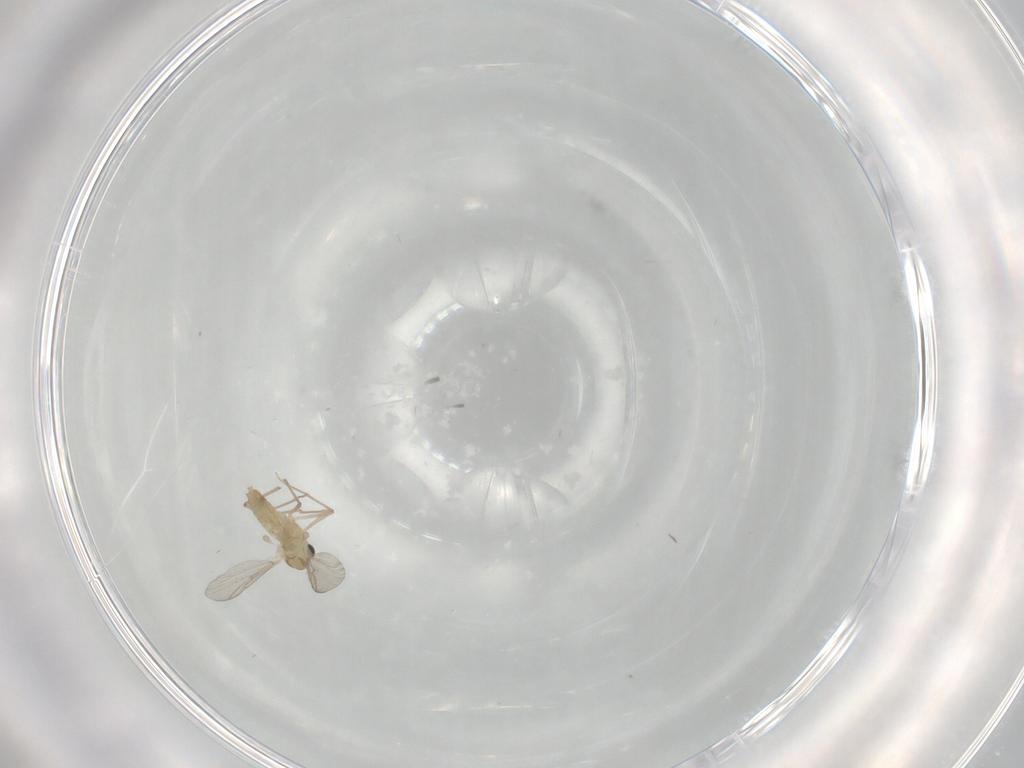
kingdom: Animalia
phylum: Arthropoda
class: Insecta
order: Diptera
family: Chironomidae
